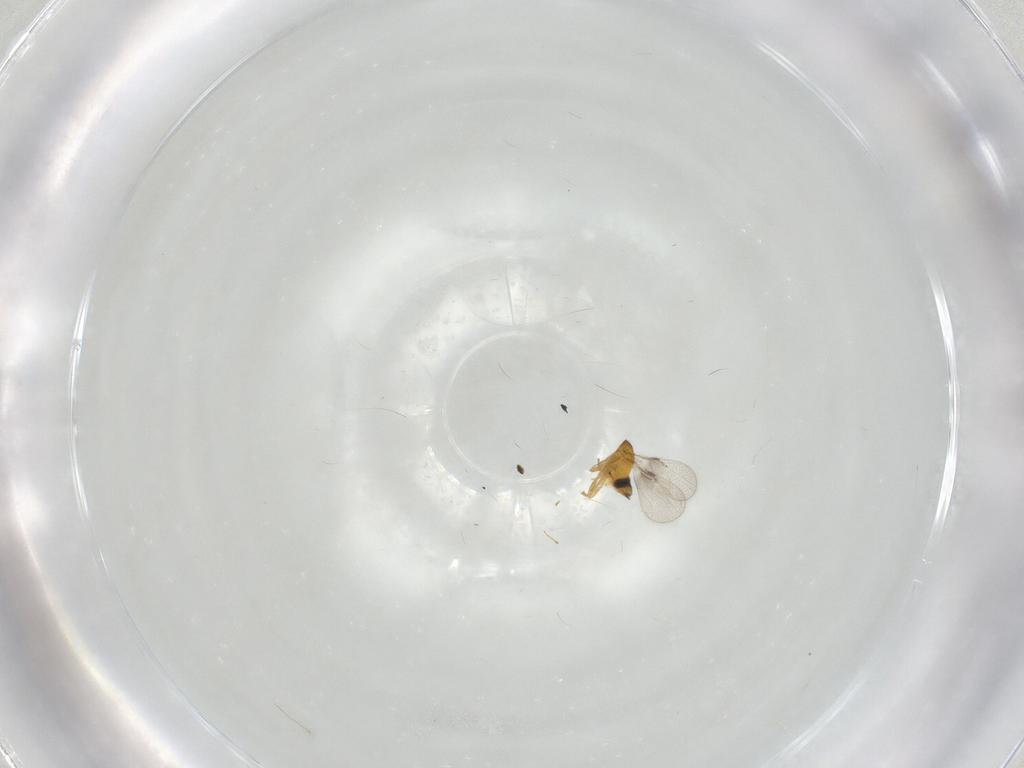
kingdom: Animalia
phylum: Arthropoda
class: Insecta
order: Hymenoptera
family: Trichogrammatidae
